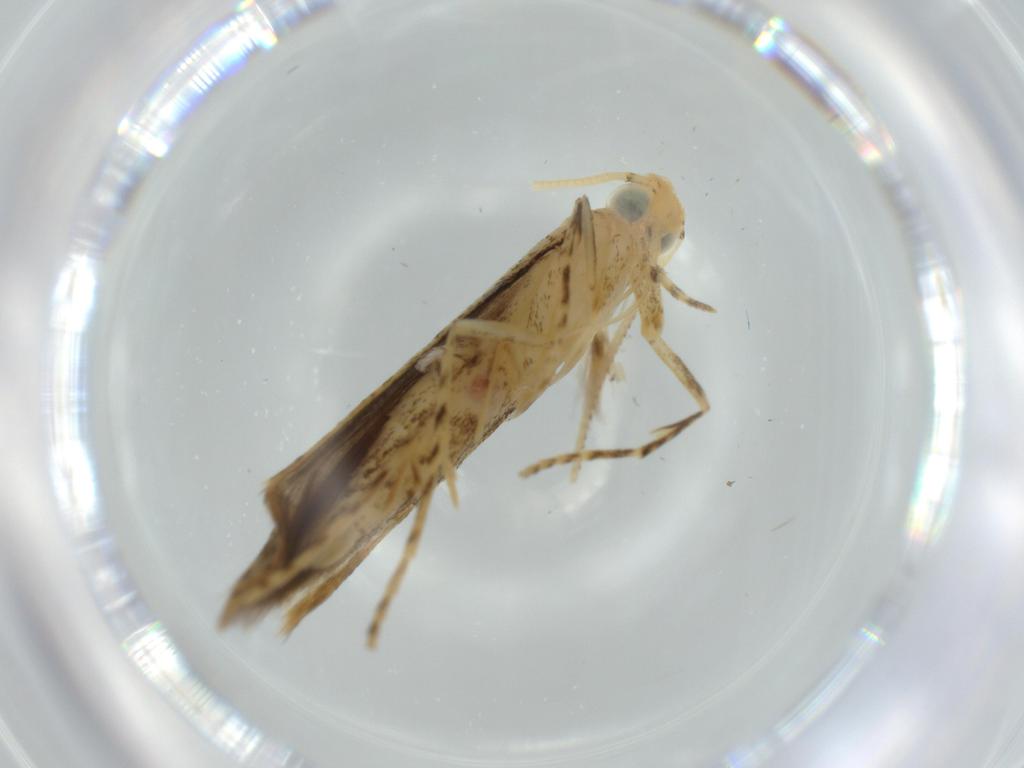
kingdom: Animalia
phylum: Arthropoda
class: Insecta
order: Lepidoptera
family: Batrachedridae
